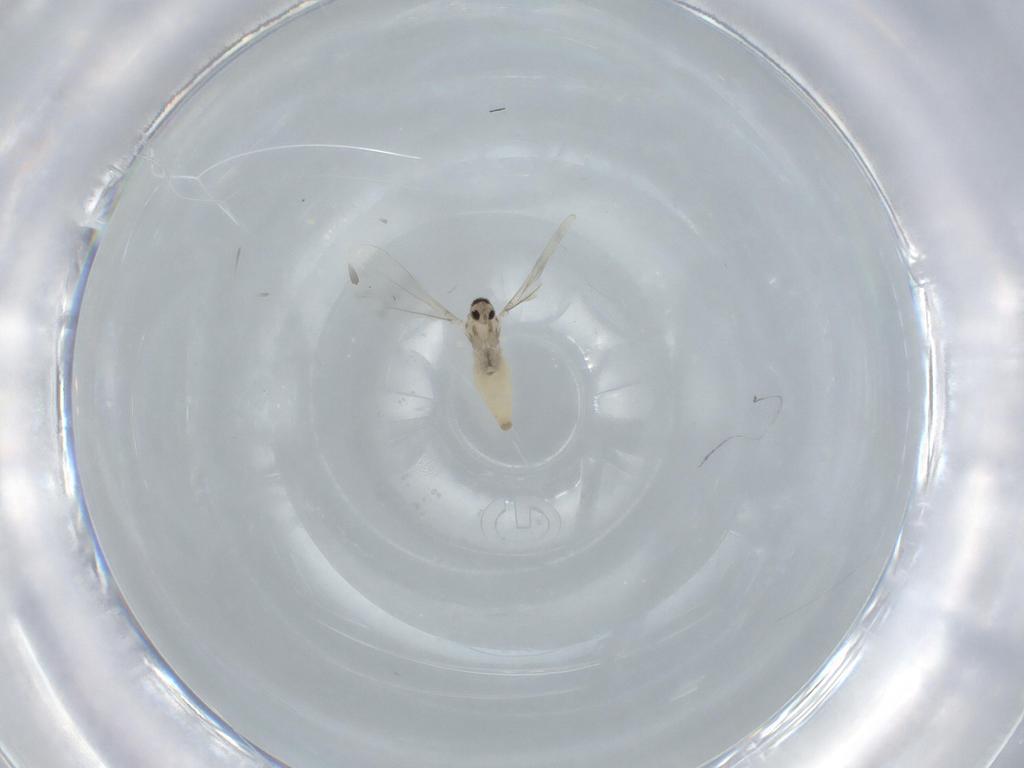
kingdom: Animalia
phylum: Arthropoda
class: Insecta
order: Diptera
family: Cecidomyiidae
